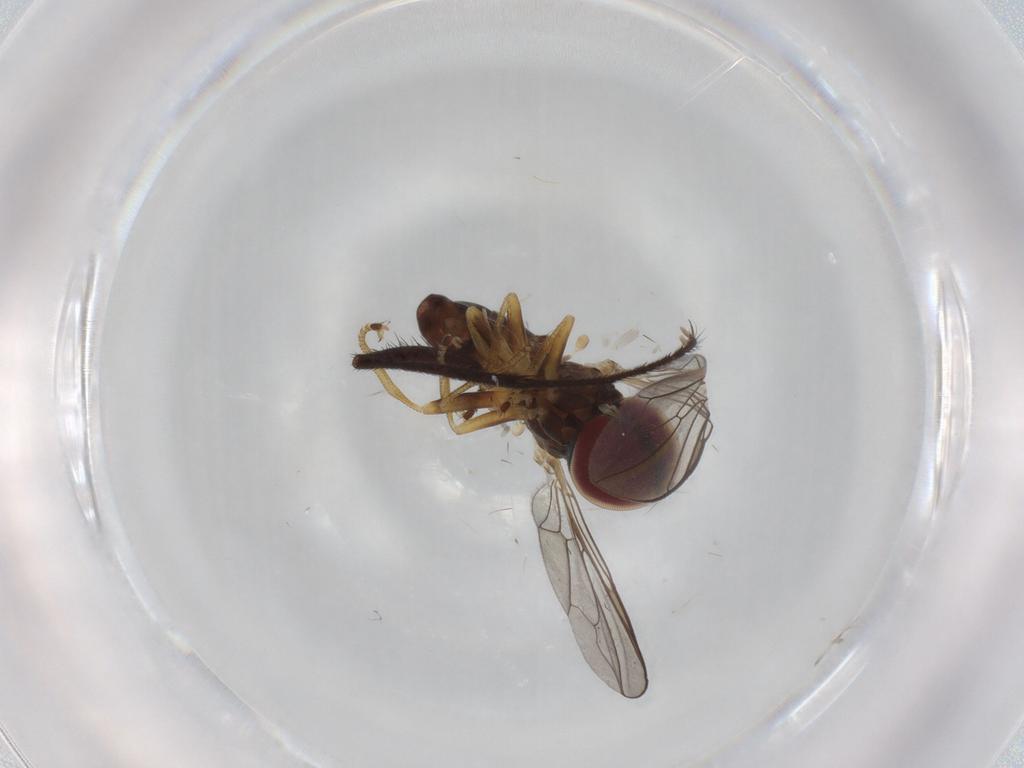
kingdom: Animalia
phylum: Arthropoda
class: Insecta
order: Diptera
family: Pipunculidae
